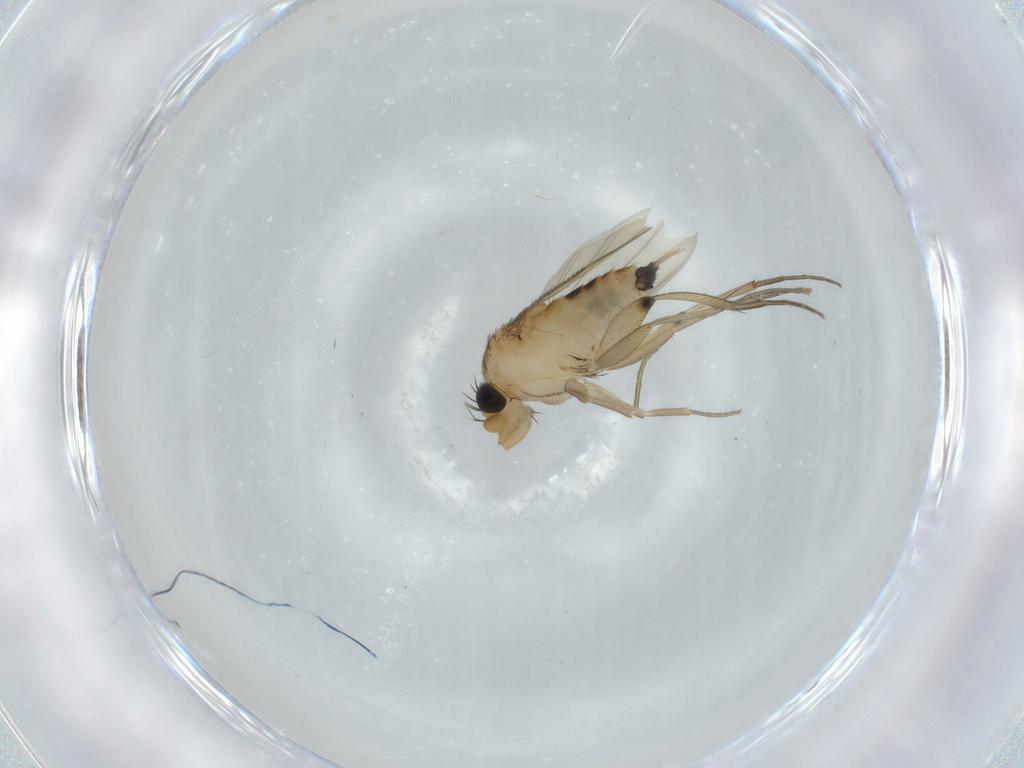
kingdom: Animalia
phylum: Arthropoda
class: Insecta
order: Diptera
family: Phoridae
